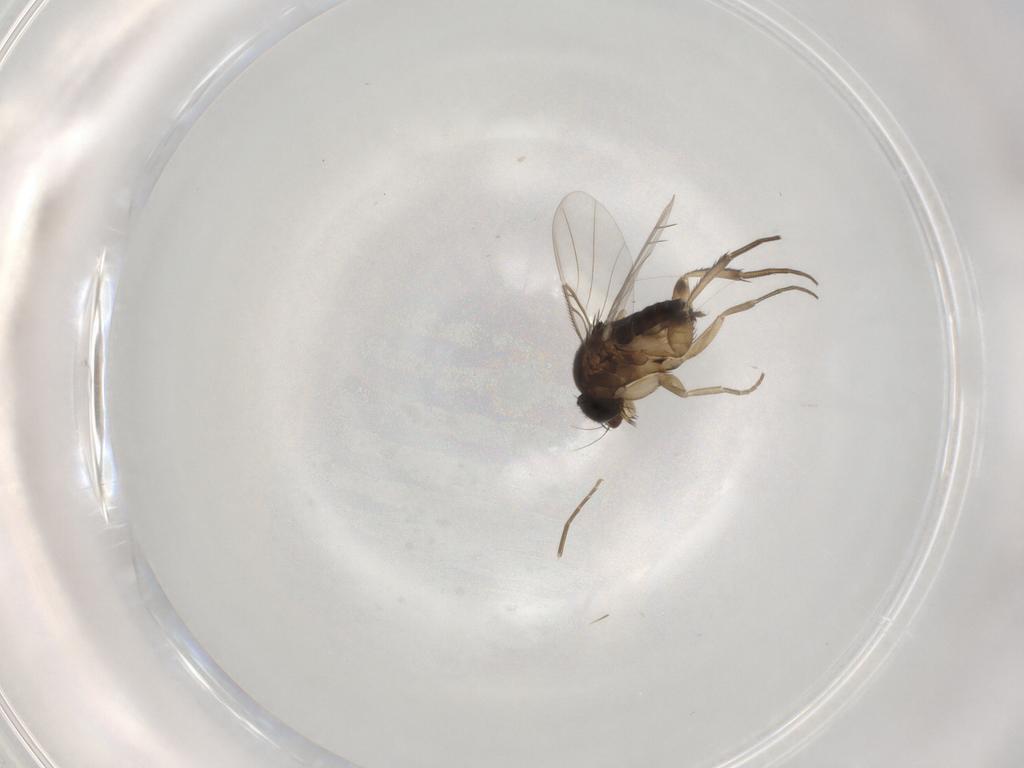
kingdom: Animalia
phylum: Arthropoda
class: Insecta
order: Diptera
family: Phoridae
